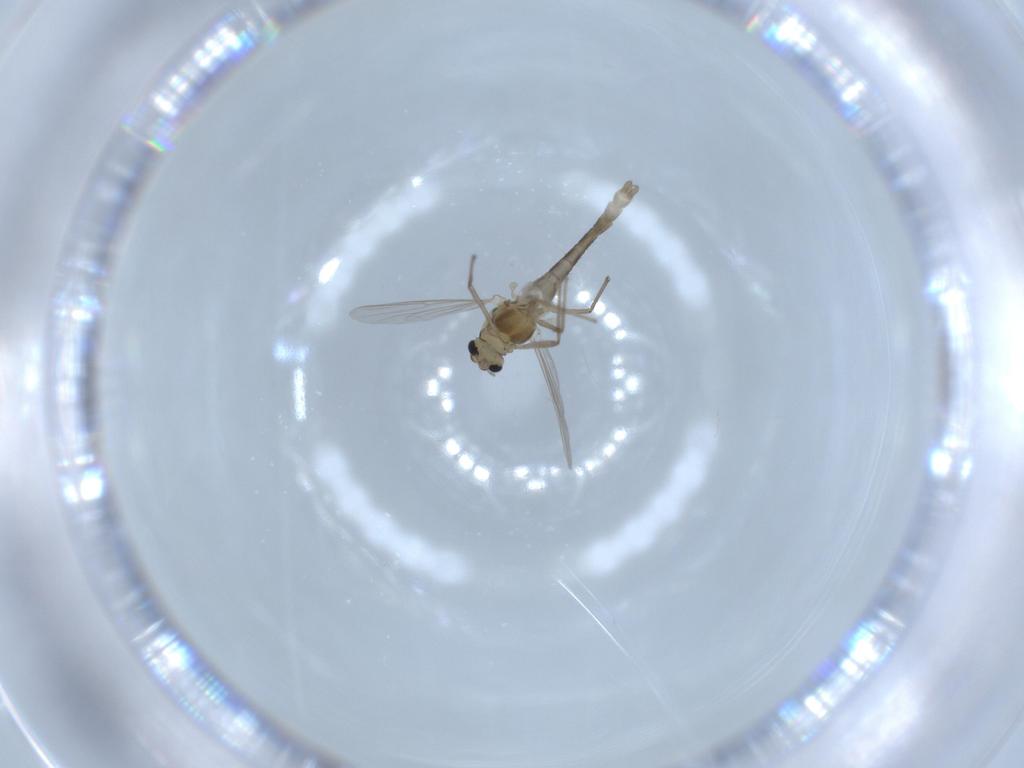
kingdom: Animalia
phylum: Arthropoda
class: Insecta
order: Diptera
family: Chironomidae
